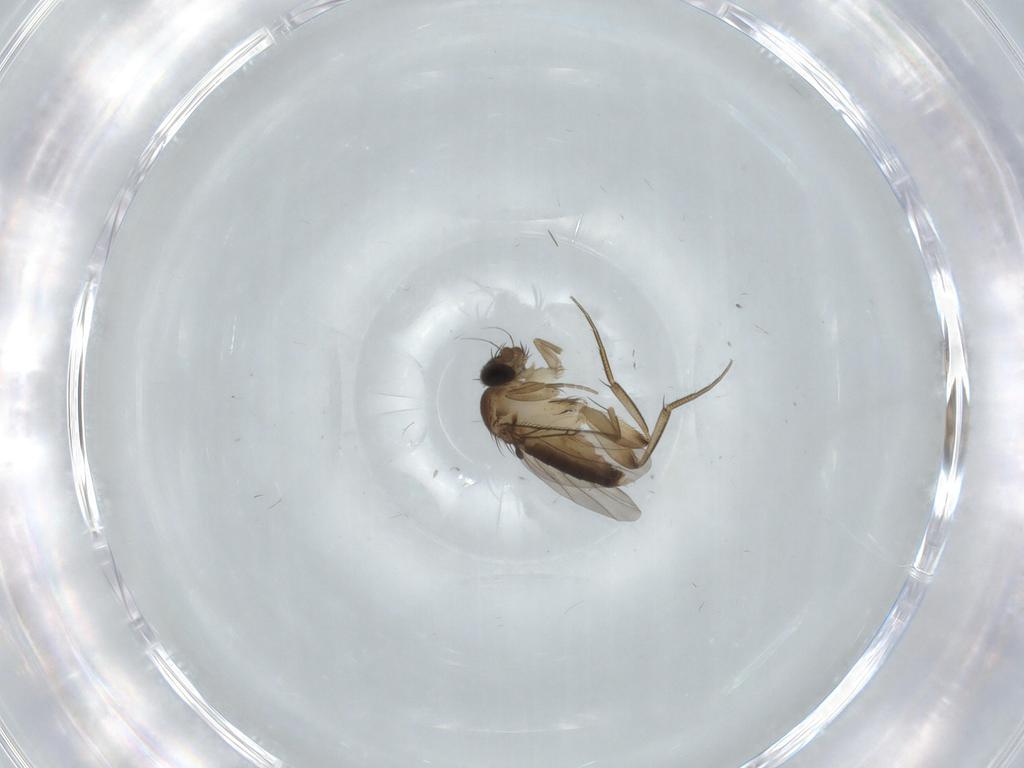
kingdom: Animalia
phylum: Arthropoda
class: Insecta
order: Diptera
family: Phoridae
